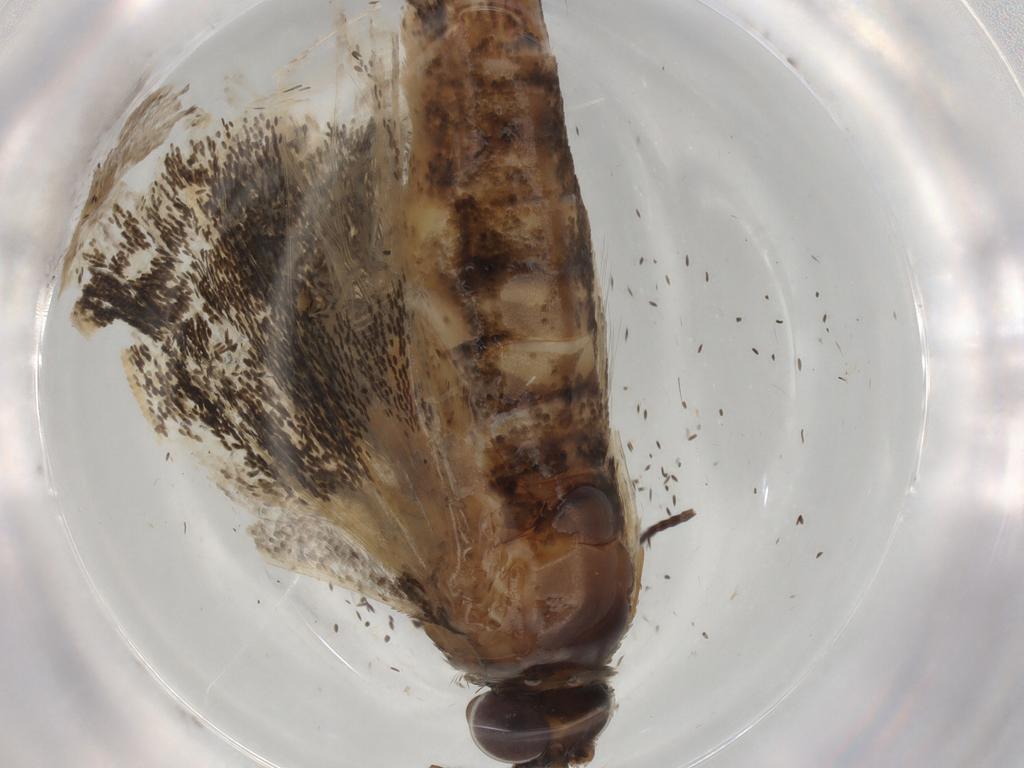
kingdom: Animalia
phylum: Arthropoda
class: Insecta
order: Lepidoptera
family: Geometridae
